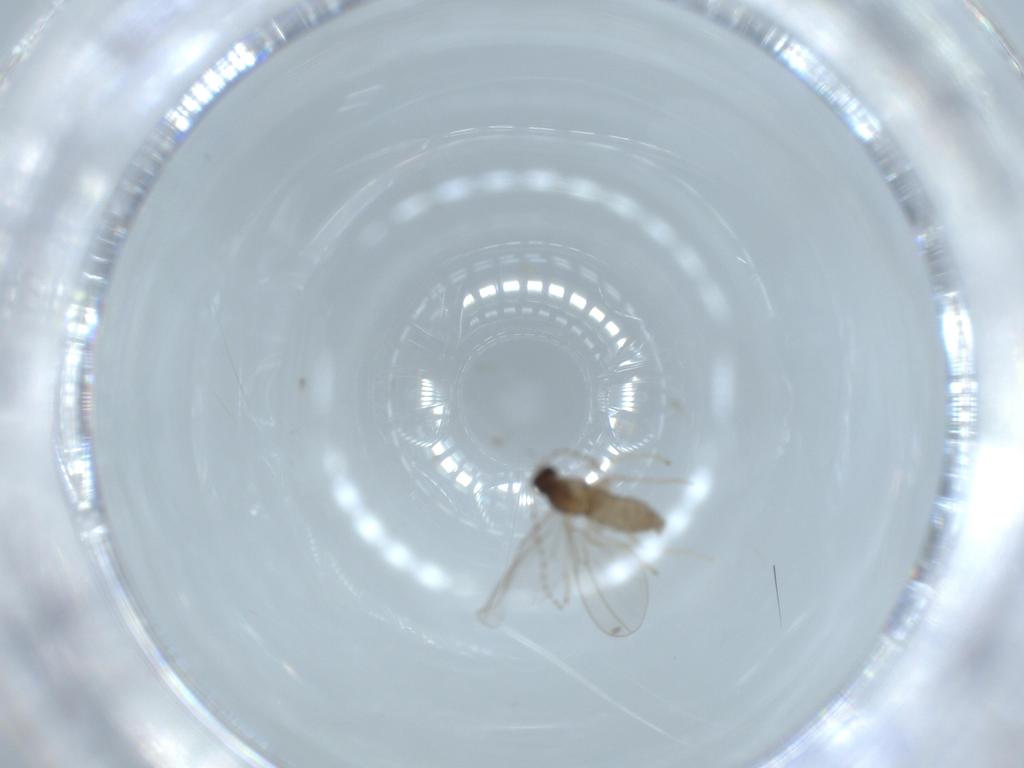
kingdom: Animalia
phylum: Arthropoda
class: Insecta
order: Diptera
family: Cecidomyiidae
